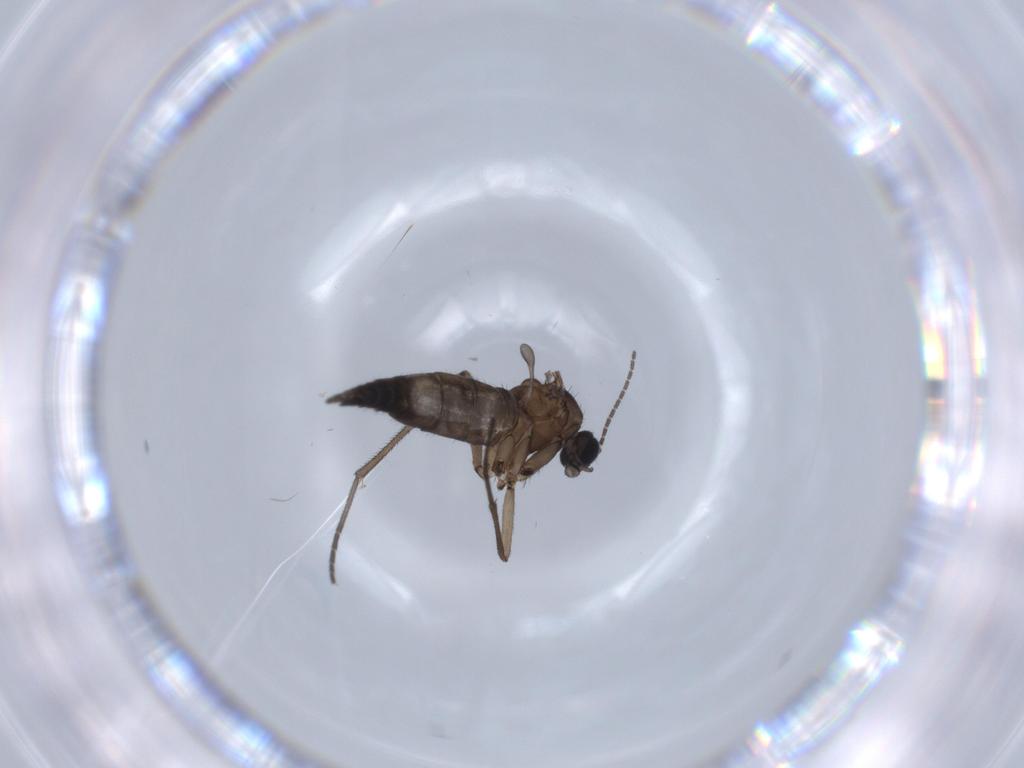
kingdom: Animalia
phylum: Arthropoda
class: Insecta
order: Diptera
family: Sciaridae
